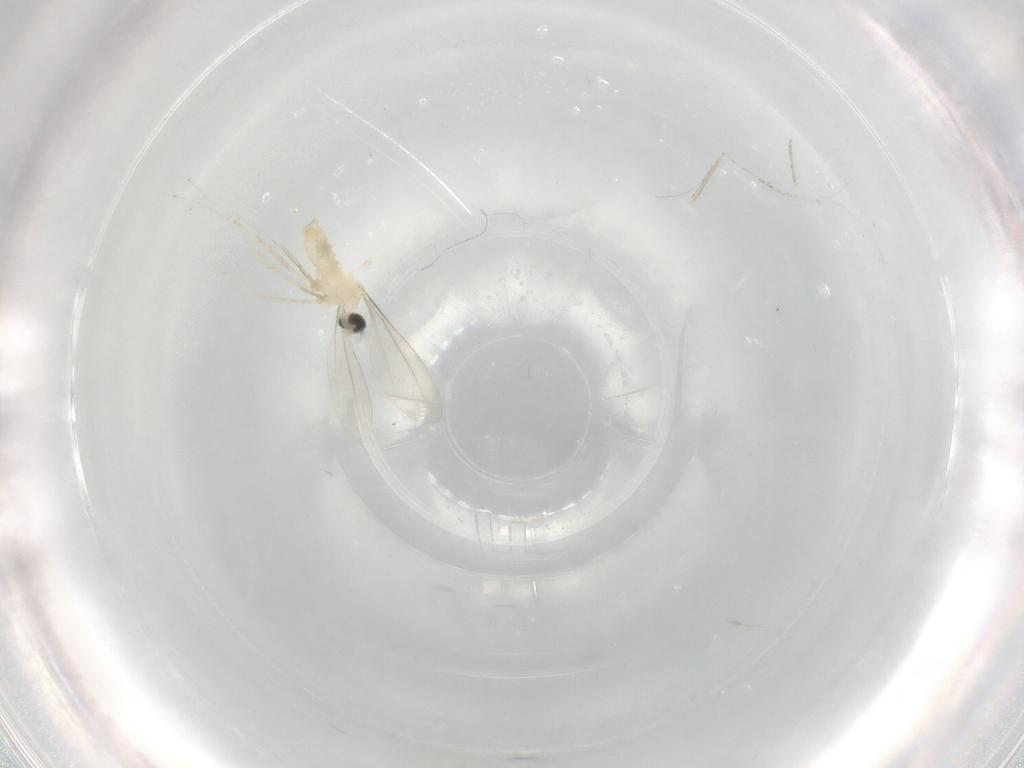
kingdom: Animalia
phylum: Arthropoda
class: Insecta
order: Diptera
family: Cecidomyiidae
